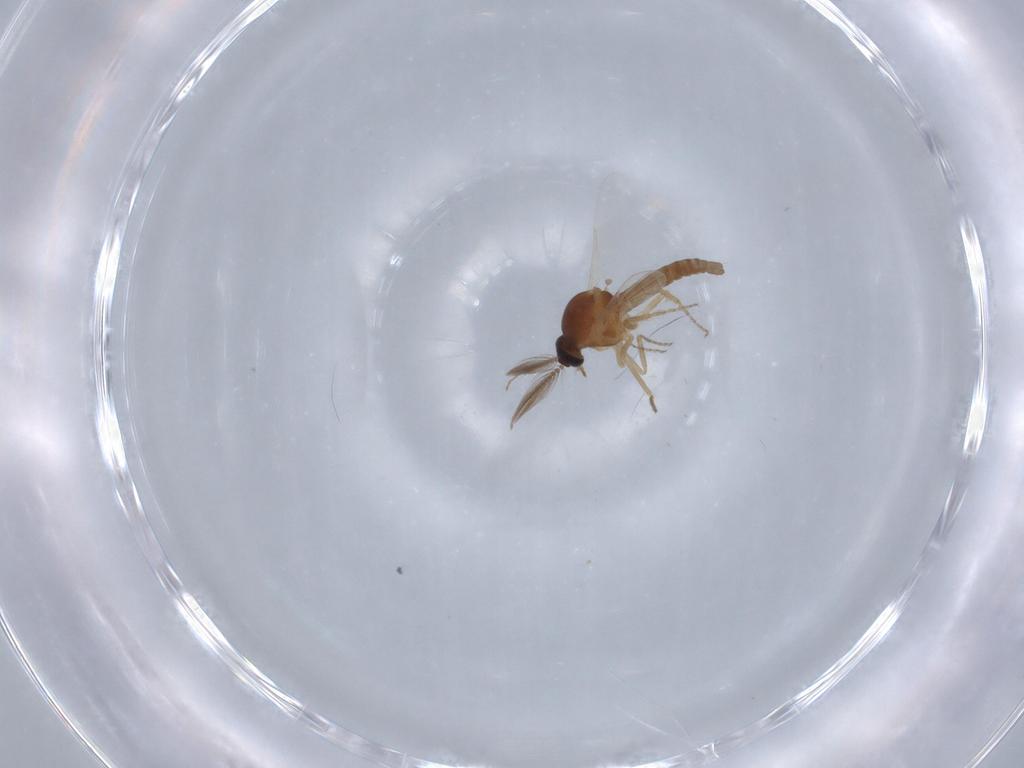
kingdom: Animalia
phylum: Arthropoda
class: Insecta
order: Diptera
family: Ceratopogonidae
